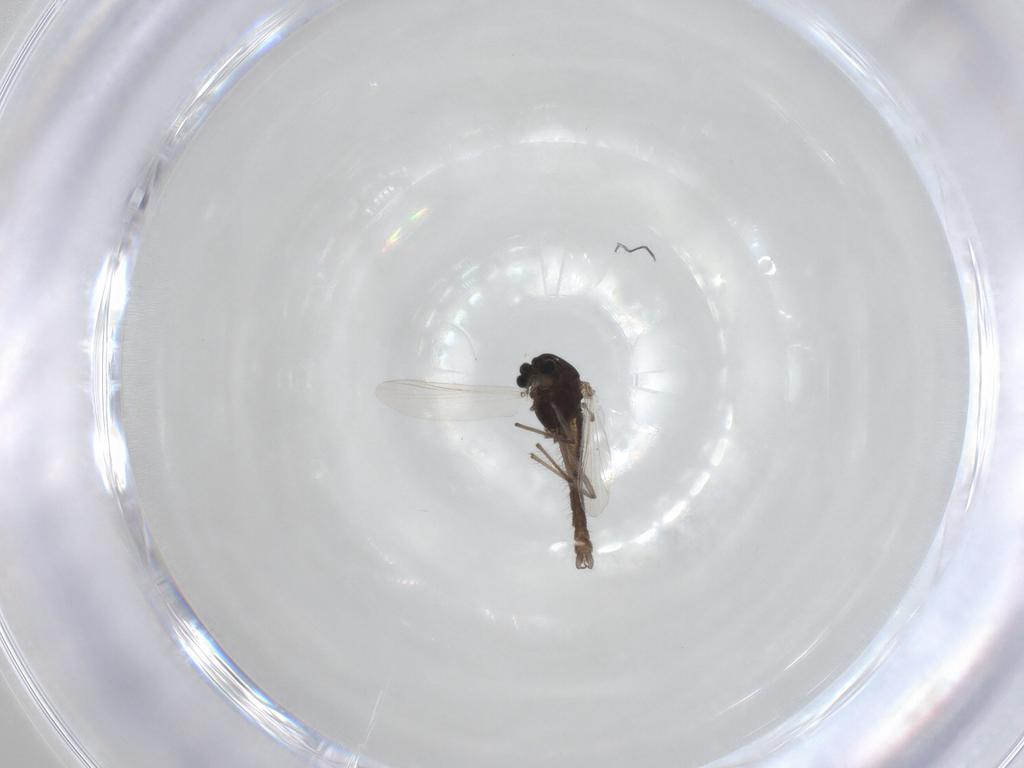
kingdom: Animalia
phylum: Arthropoda
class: Insecta
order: Diptera
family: Chironomidae
